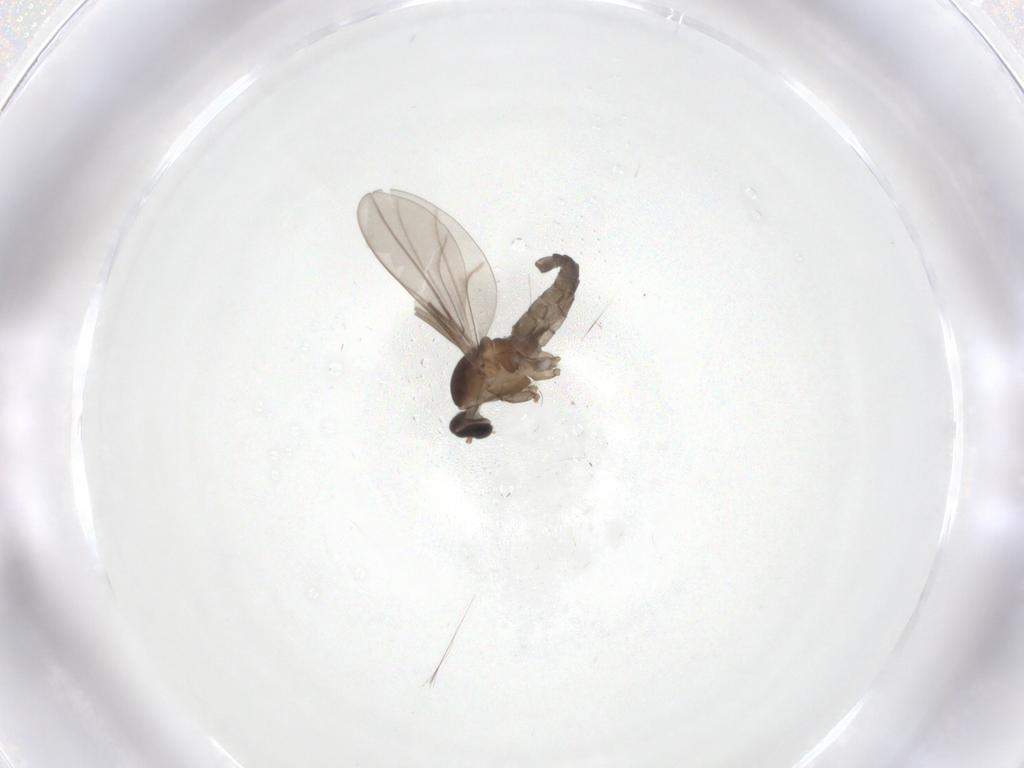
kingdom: Animalia
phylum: Arthropoda
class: Insecta
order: Diptera
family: Cecidomyiidae
